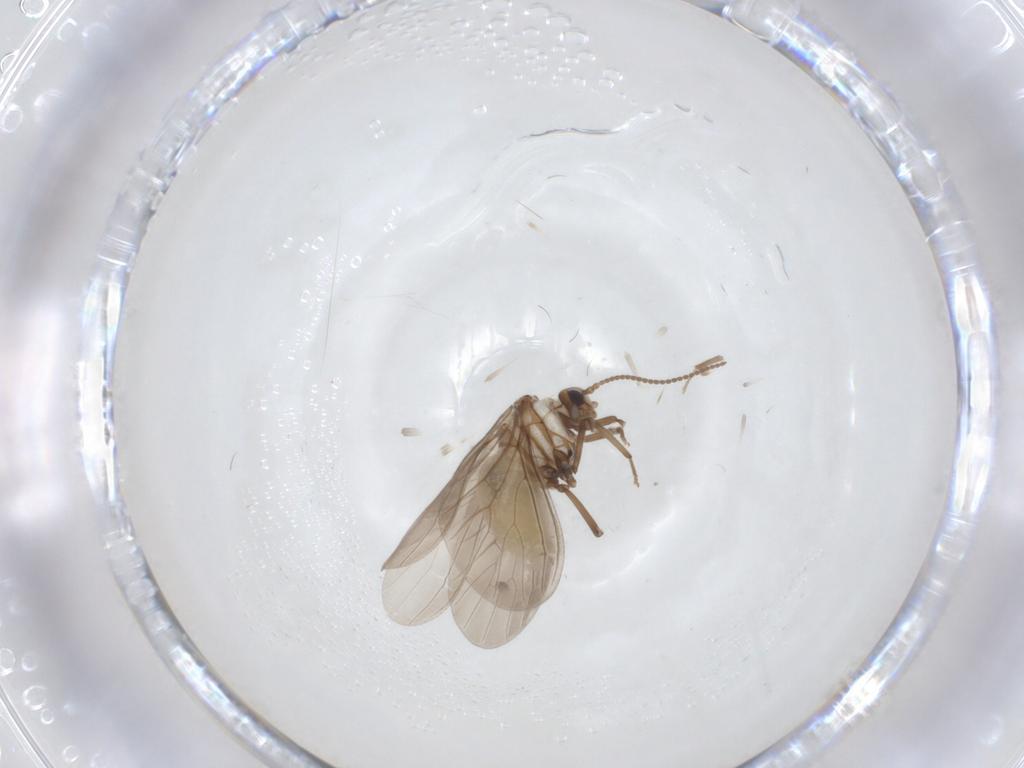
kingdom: Animalia
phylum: Arthropoda
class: Insecta
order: Neuroptera
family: Coniopterygidae
